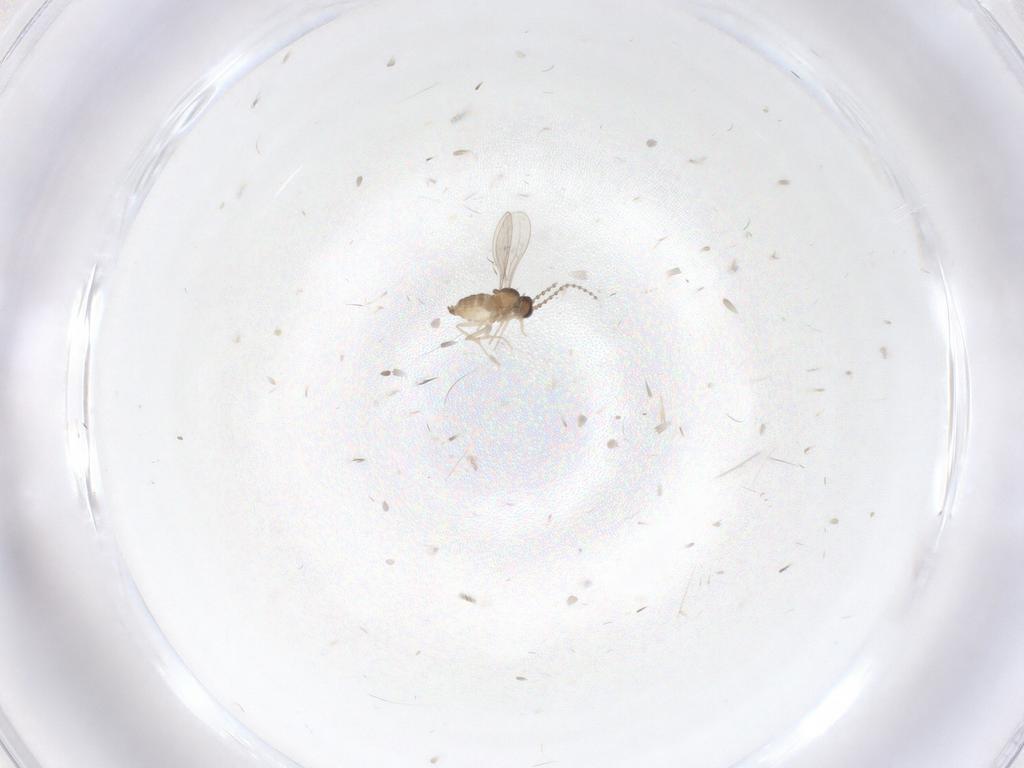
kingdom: Animalia
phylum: Arthropoda
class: Insecta
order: Diptera
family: Cecidomyiidae
